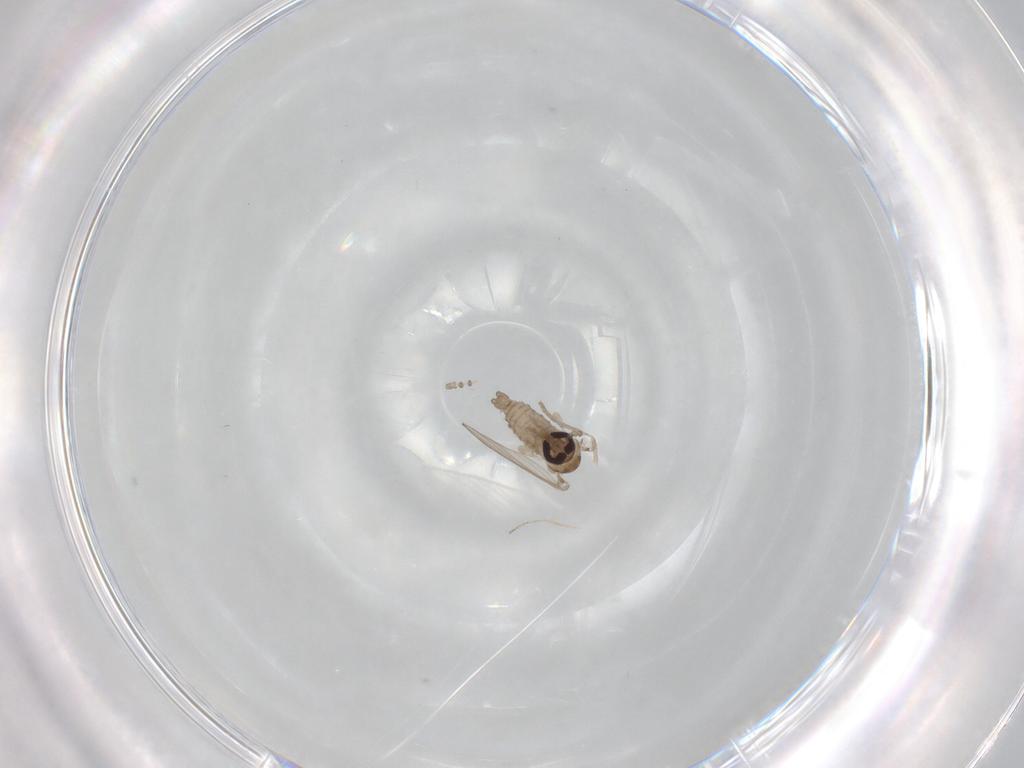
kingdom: Animalia
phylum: Arthropoda
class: Insecta
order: Diptera
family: Psychodidae
